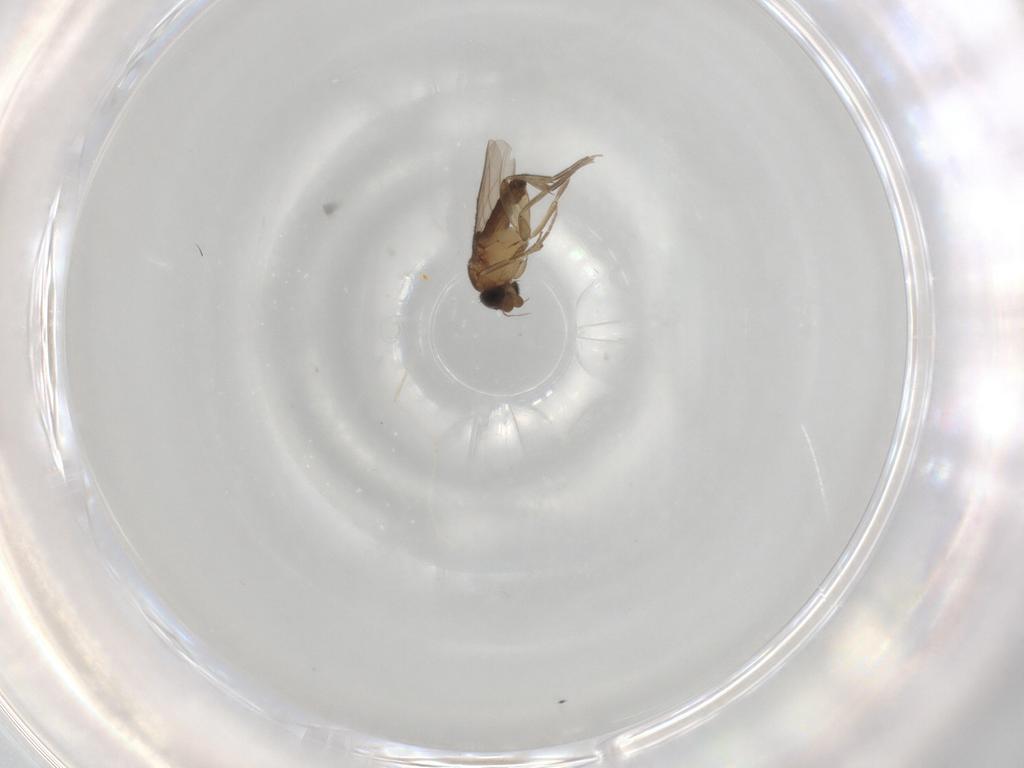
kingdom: Animalia
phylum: Arthropoda
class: Insecta
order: Diptera
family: Phoridae
